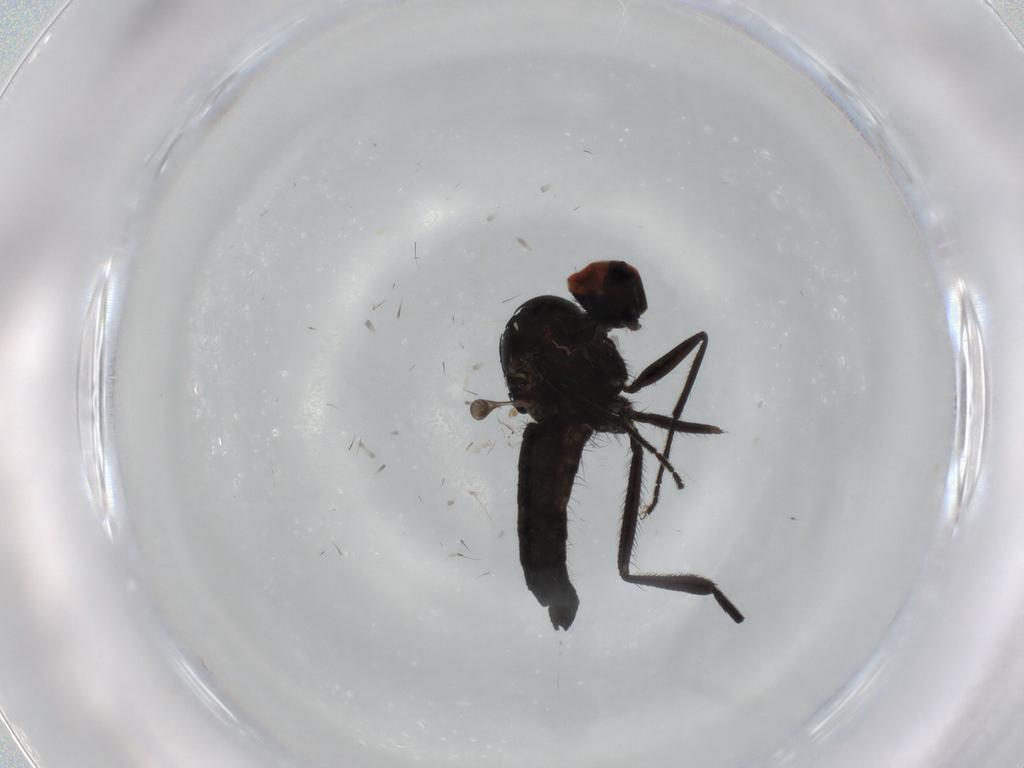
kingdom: Animalia
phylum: Arthropoda
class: Insecta
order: Diptera
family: Hybotidae
